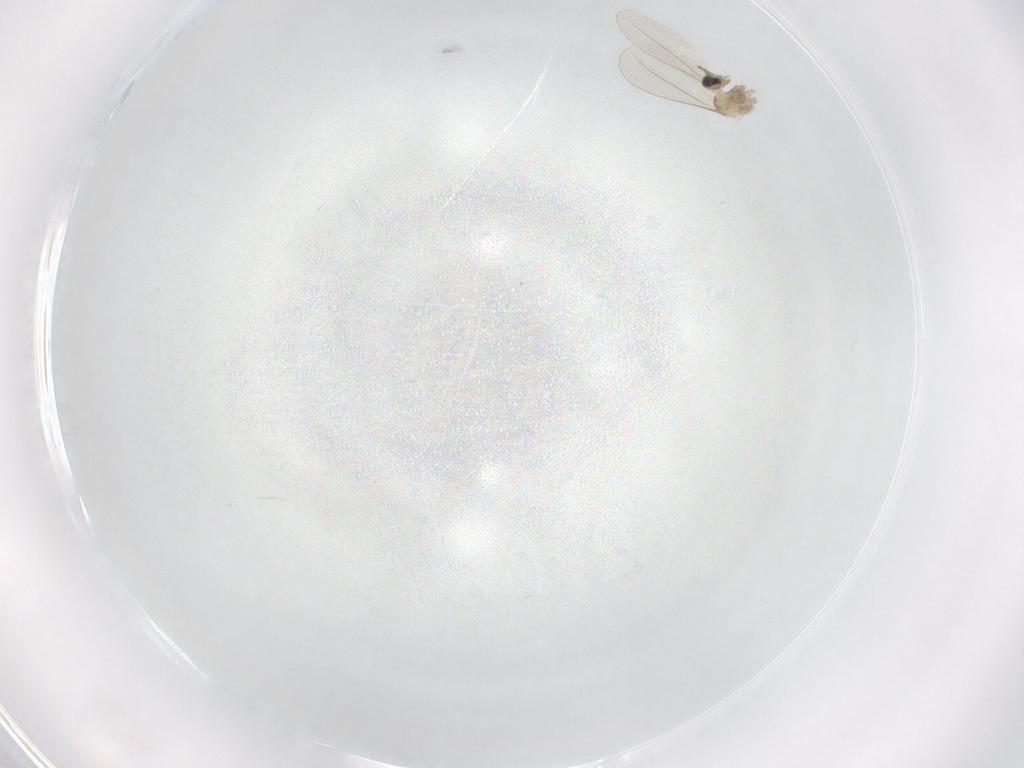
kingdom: Animalia
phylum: Arthropoda
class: Insecta
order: Diptera
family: Cecidomyiidae
